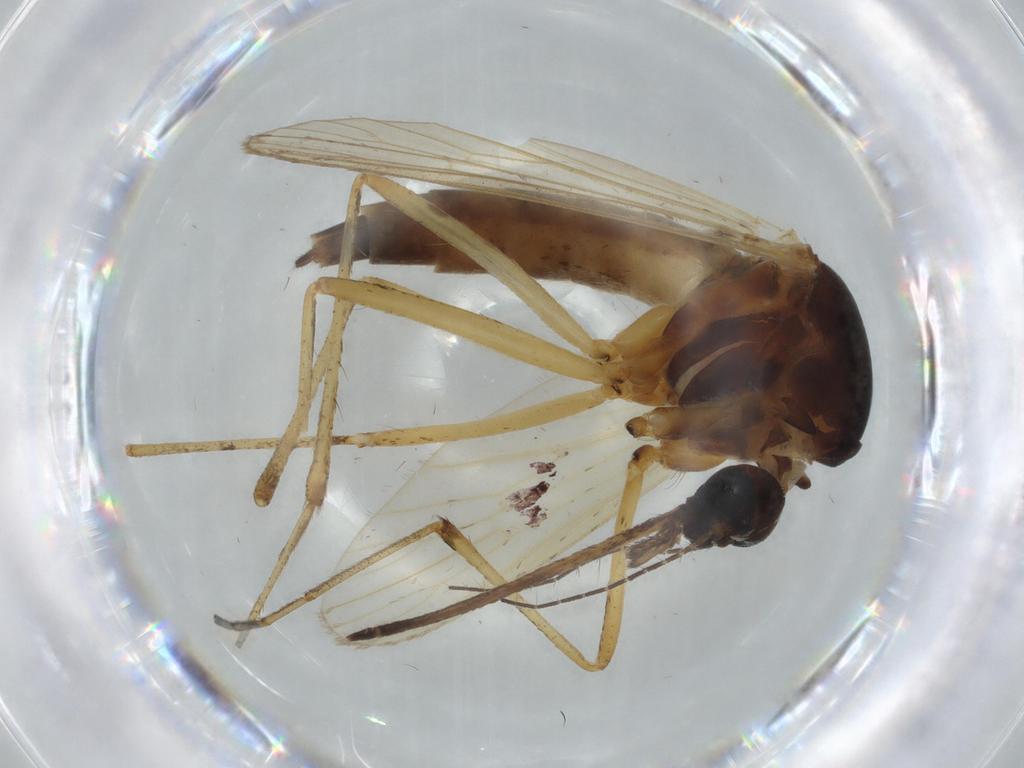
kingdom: Animalia
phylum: Arthropoda
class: Insecta
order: Diptera
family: Muscidae
